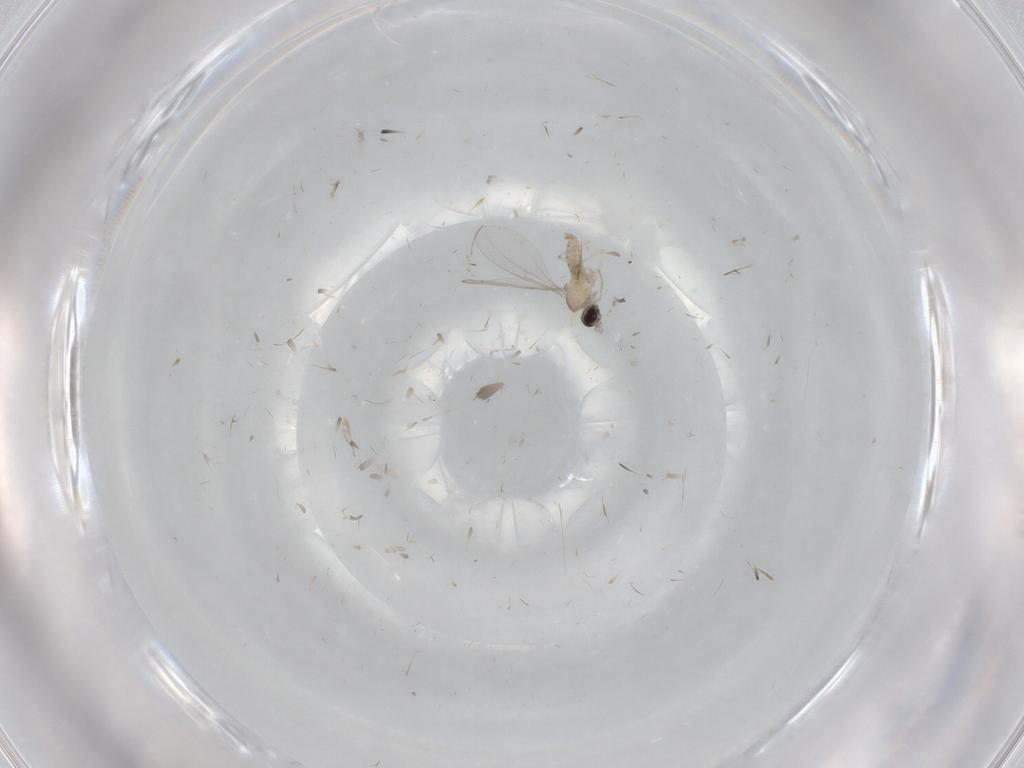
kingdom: Animalia
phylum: Arthropoda
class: Insecta
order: Diptera
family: Cecidomyiidae
